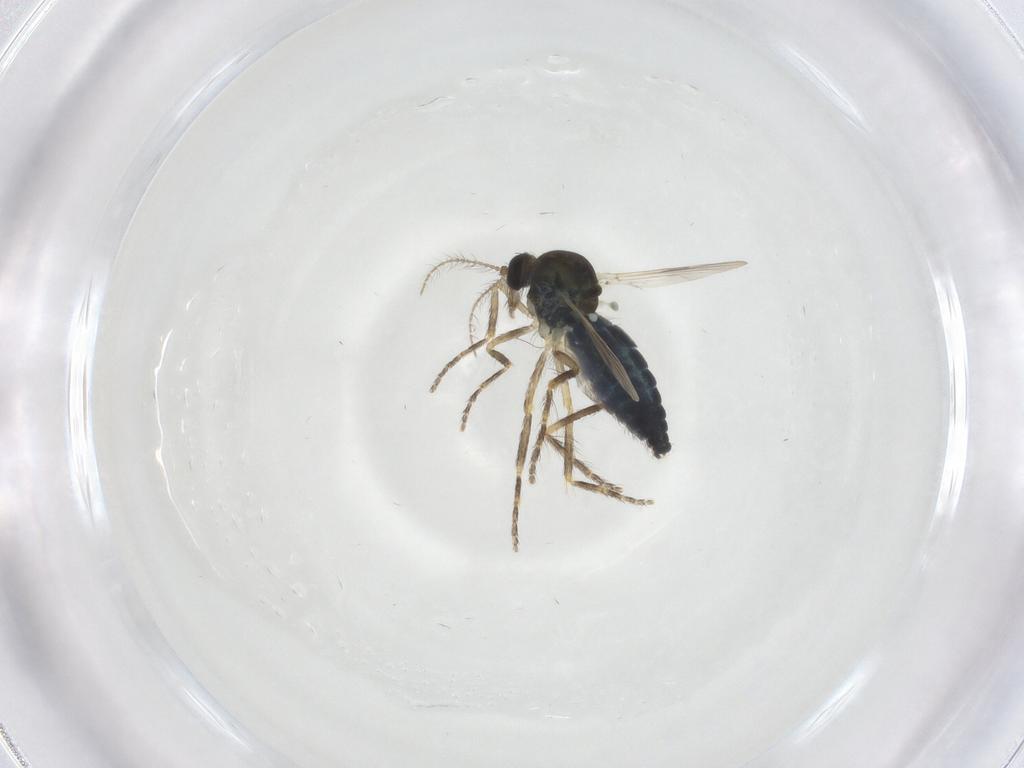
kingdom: Animalia
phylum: Arthropoda
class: Insecta
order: Diptera
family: Ceratopogonidae
